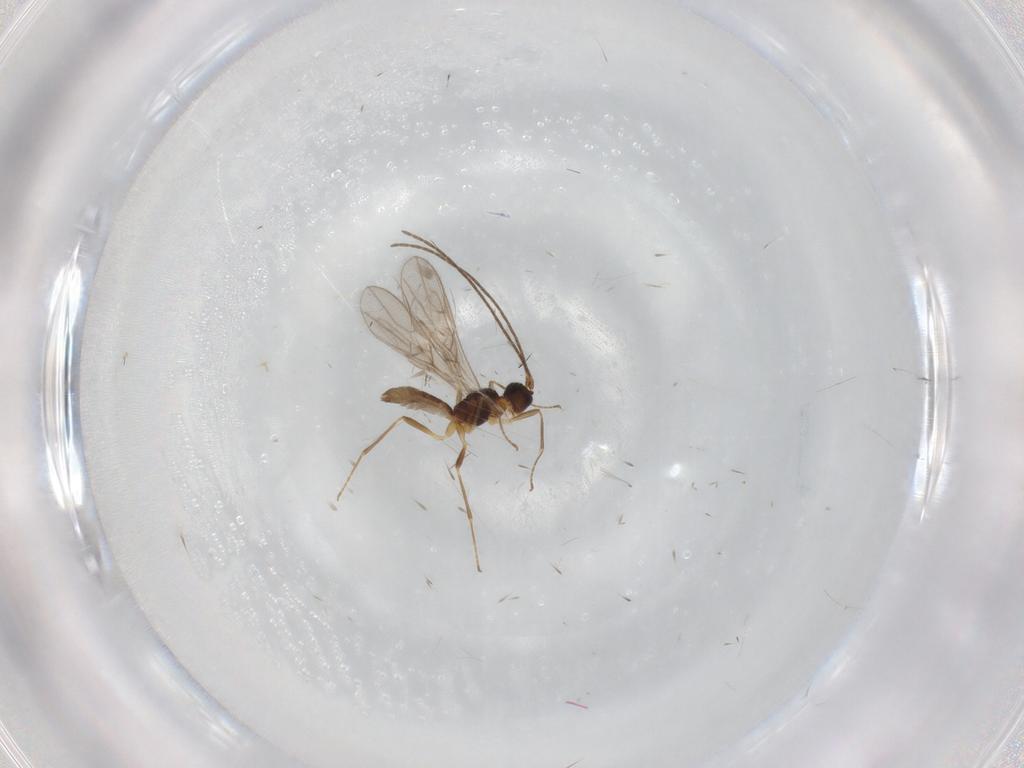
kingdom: Animalia
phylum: Arthropoda
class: Insecta
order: Hymenoptera
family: Braconidae
